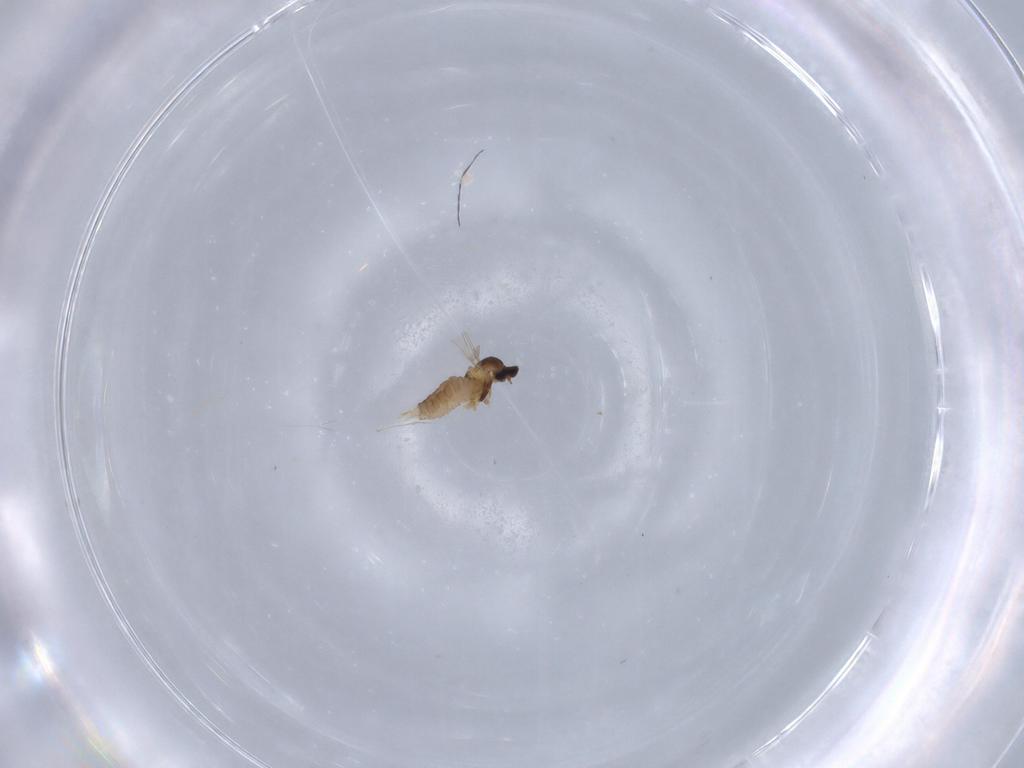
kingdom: Animalia
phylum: Arthropoda
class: Insecta
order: Diptera
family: Cecidomyiidae
